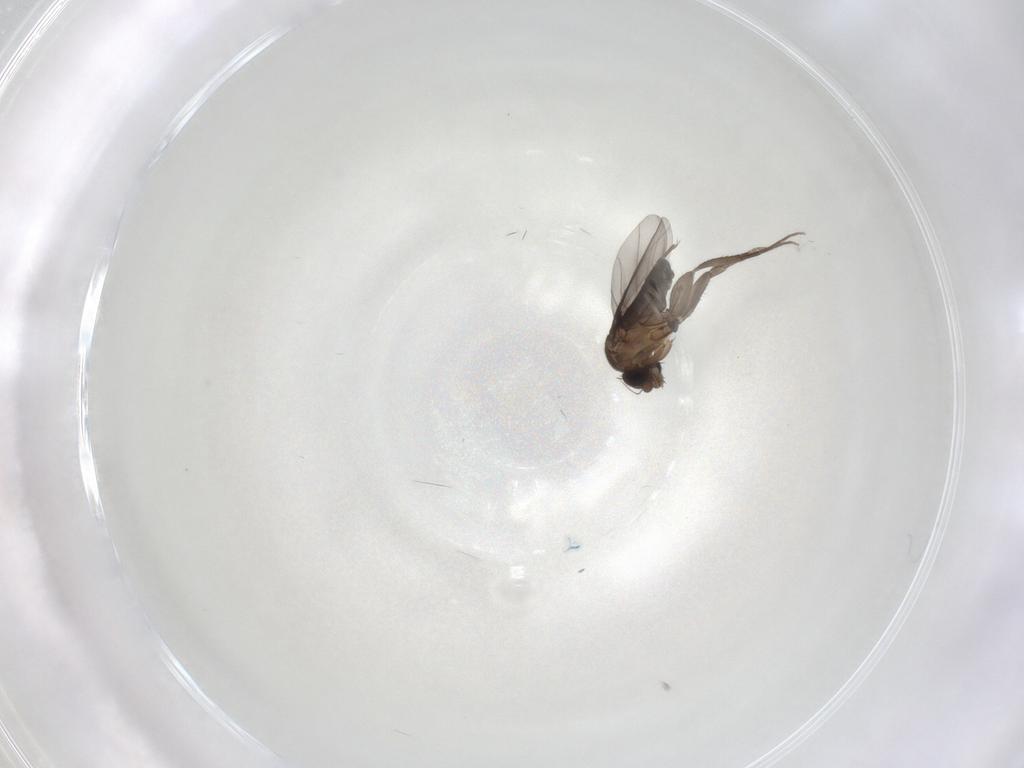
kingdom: Animalia
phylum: Arthropoda
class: Insecta
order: Diptera
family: Phoridae
